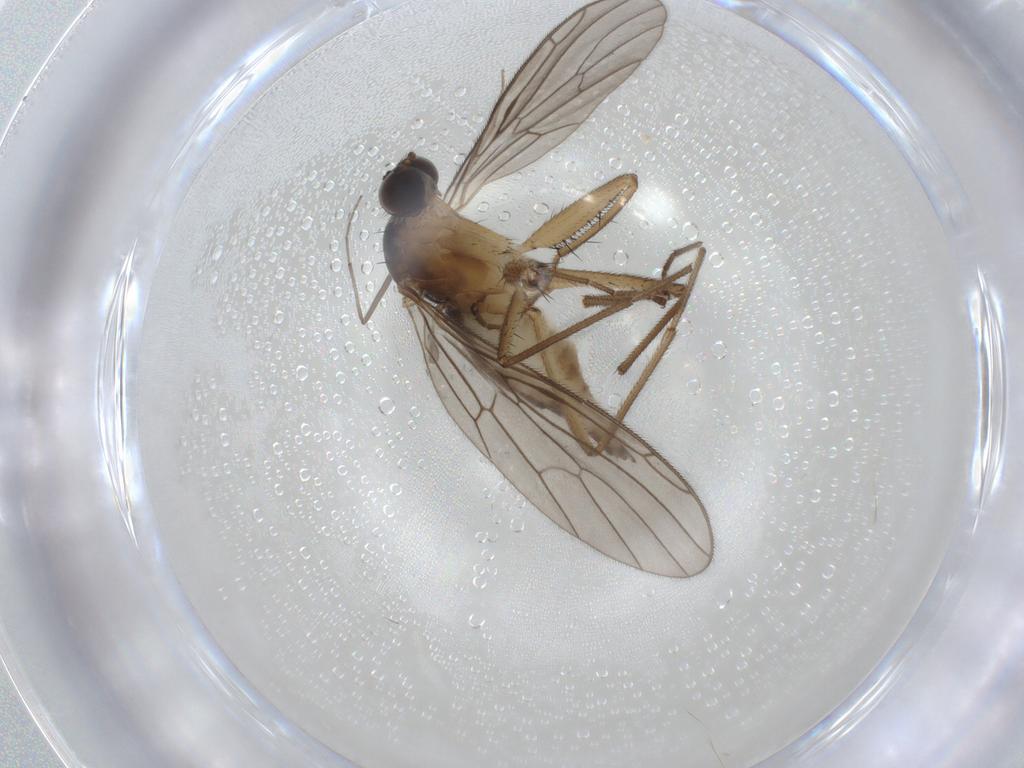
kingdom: Animalia
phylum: Arthropoda
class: Insecta
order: Diptera
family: Empididae
